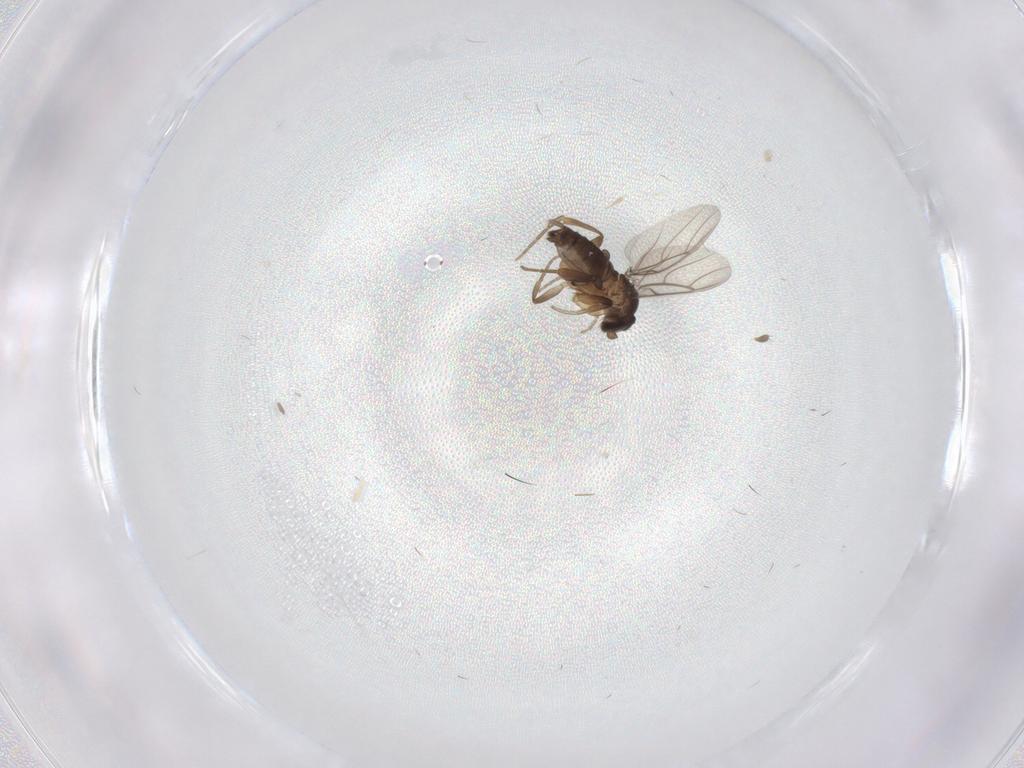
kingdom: Animalia
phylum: Arthropoda
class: Insecta
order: Diptera
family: Phoridae
